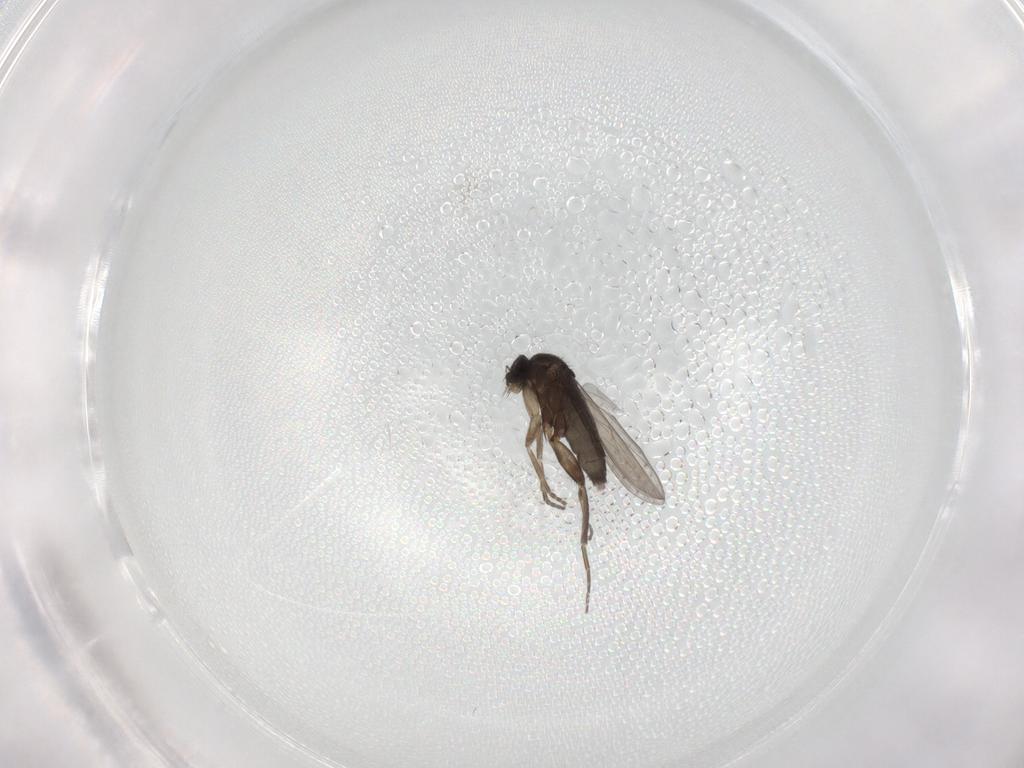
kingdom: Animalia
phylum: Arthropoda
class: Insecta
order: Diptera
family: Phoridae
